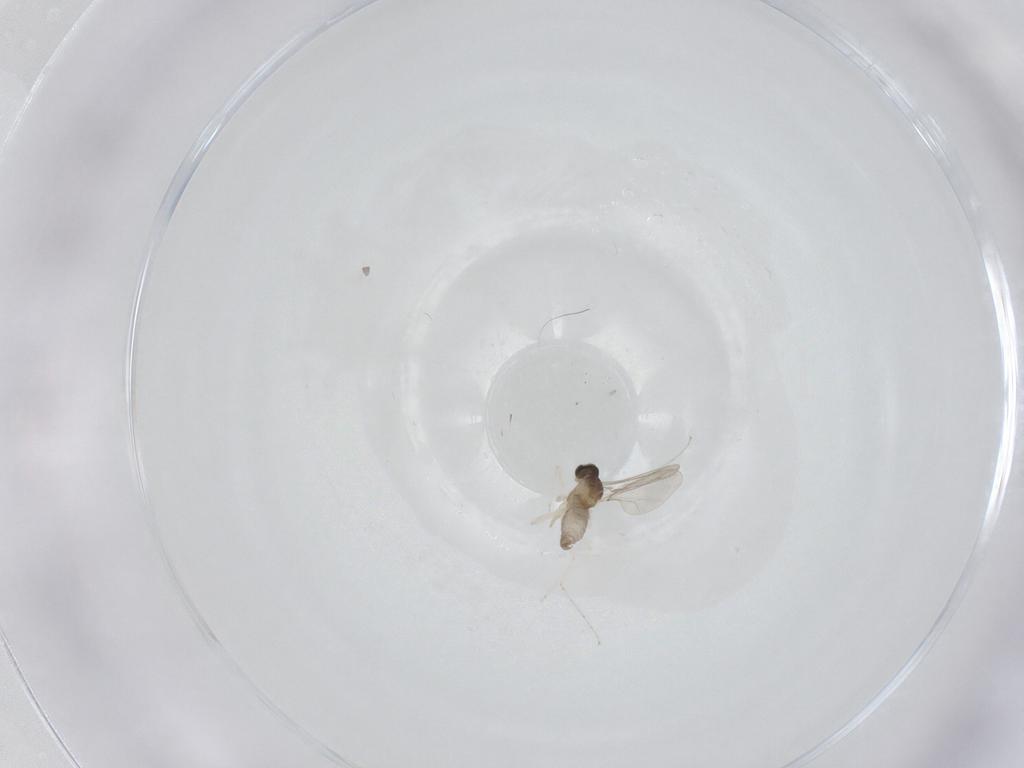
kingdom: Animalia
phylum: Arthropoda
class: Insecta
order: Diptera
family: Cecidomyiidae
